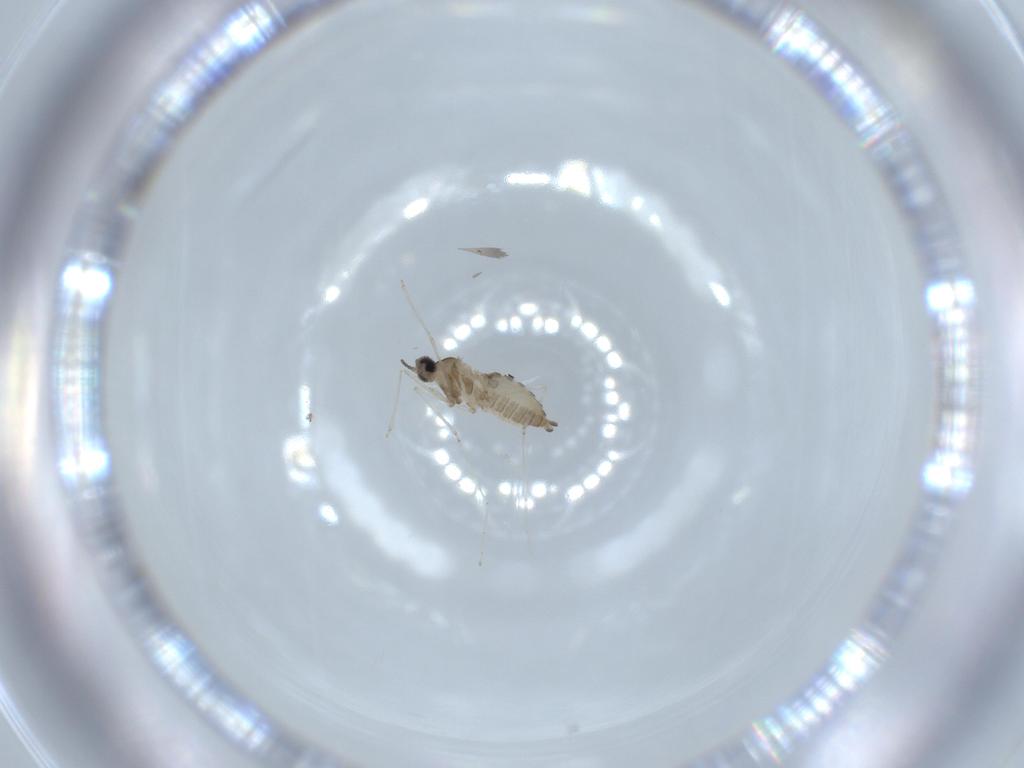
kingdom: Animalia
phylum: Arthropoda
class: Insecta
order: Diptera
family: Cecidomyiidae
